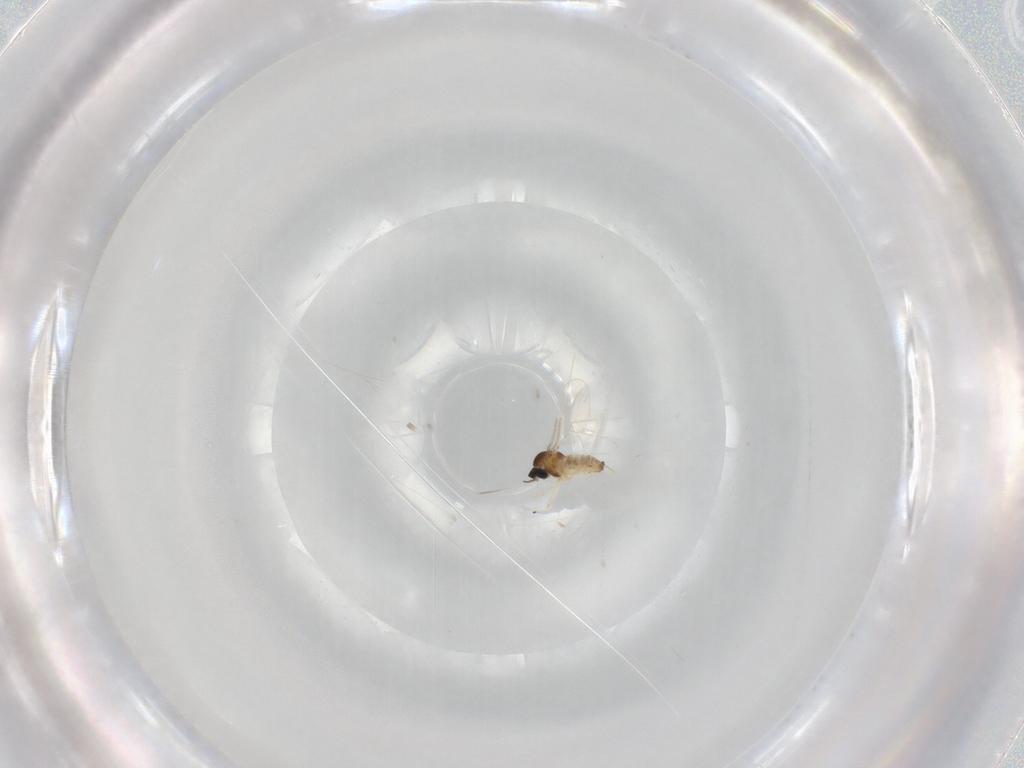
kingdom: Animalia
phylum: Arthropoda
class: Insecta
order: Diptera
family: Cecidomyiidae
